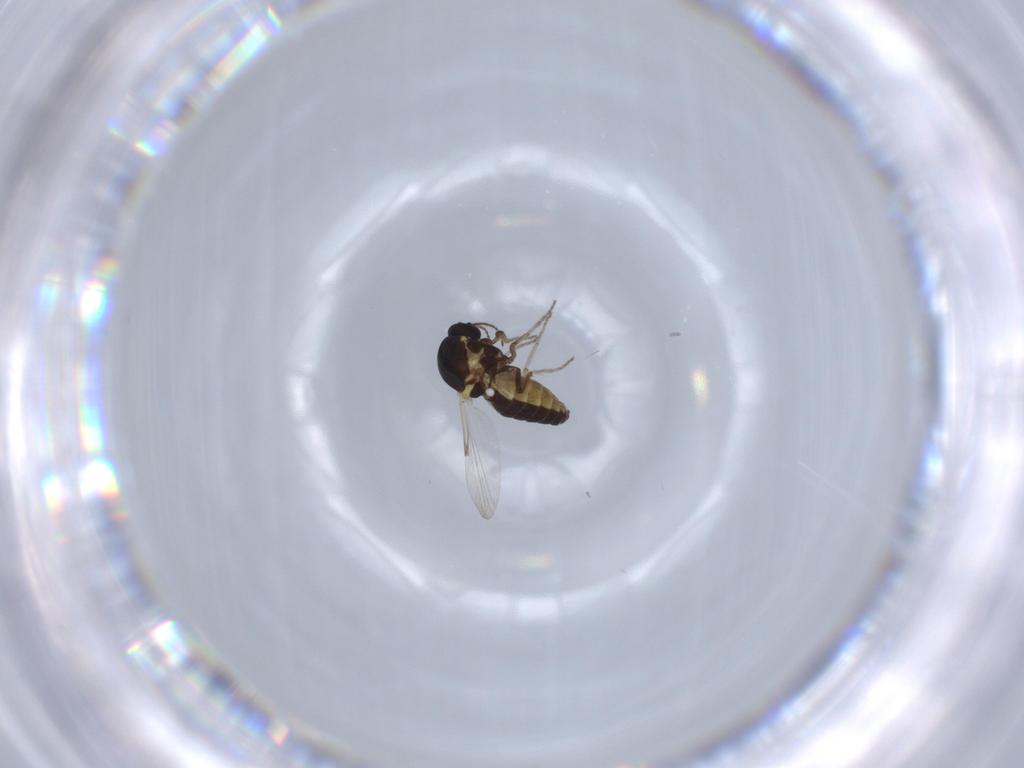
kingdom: Animalia
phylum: Arthropoda
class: Insecta
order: Diptera
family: Ceratopogonidae
